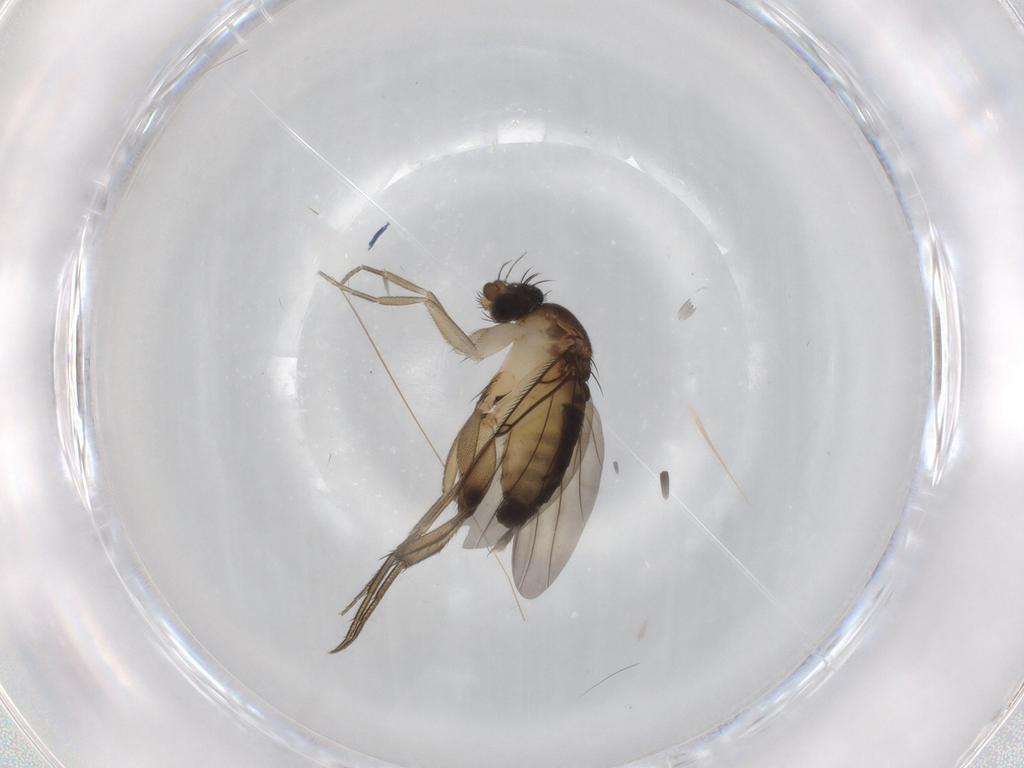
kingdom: Animalia
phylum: Arthropoda
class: Insecta
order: Diptera
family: Phoridae
